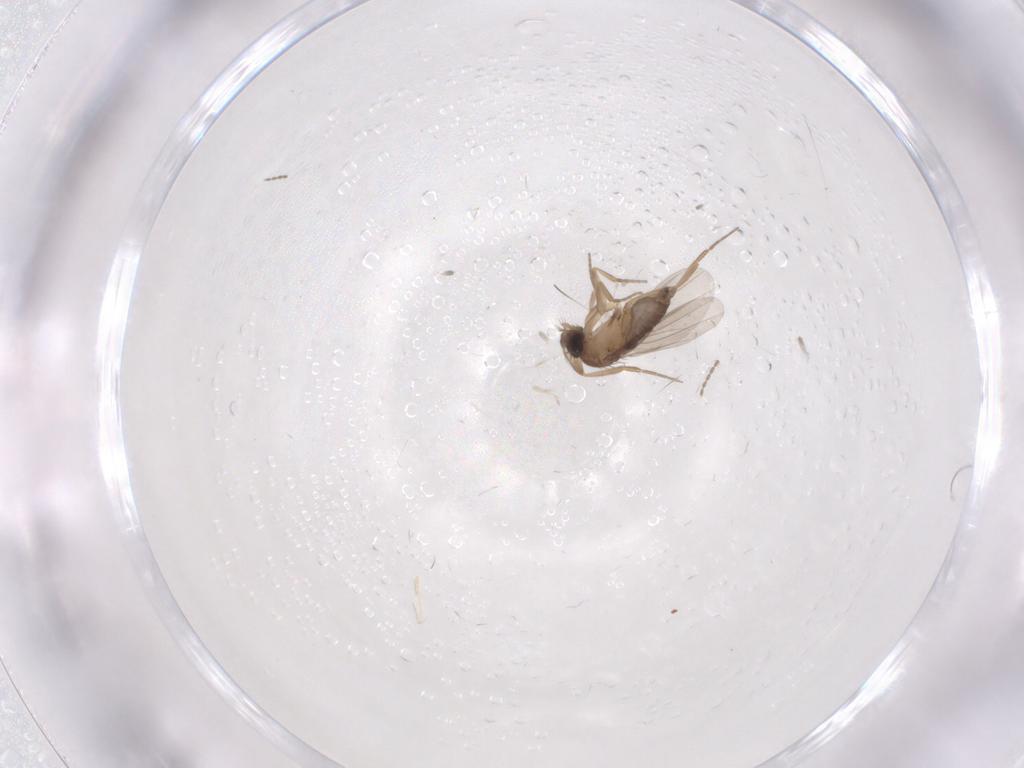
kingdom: Animalia
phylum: Arthropoda
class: Insecta
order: Diptera
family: Cecidomyiidae
